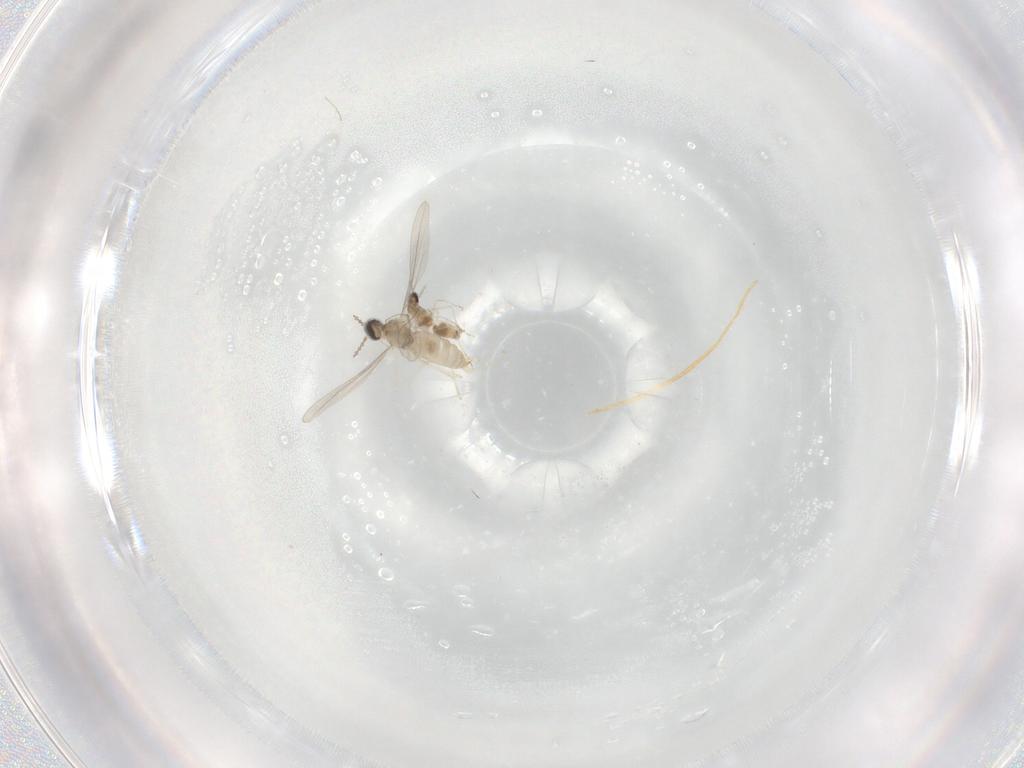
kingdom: Animalia
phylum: Arthropoda
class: Insecta
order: Diptera
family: Cecidomyiidae
